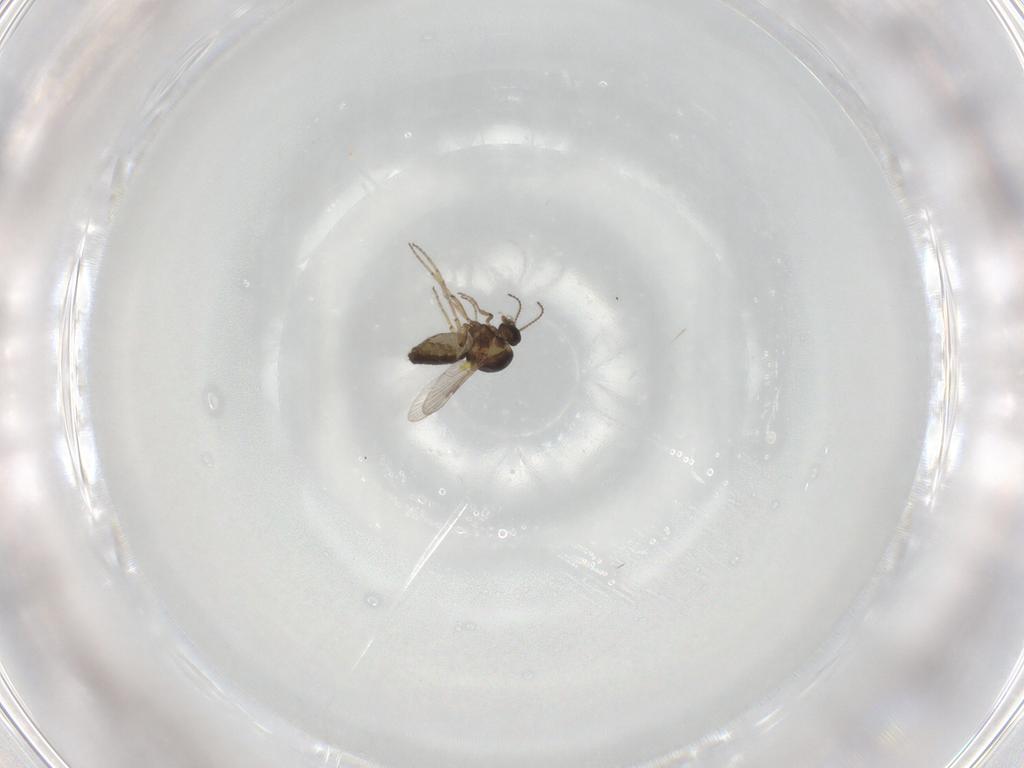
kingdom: Animalia
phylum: Arthropoda
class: Insecta
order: Diptera
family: Ceratopogonidae
